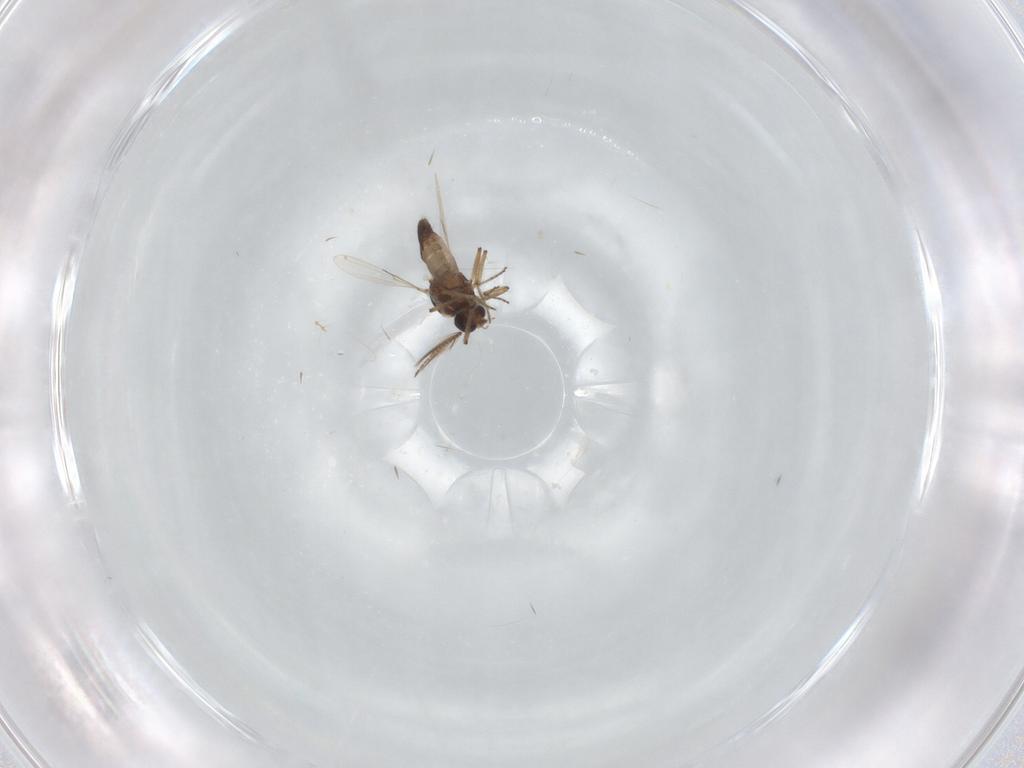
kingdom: Animalia
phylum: Arthropoda
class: Insecta
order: Diptera
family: Ceratopogonidae
